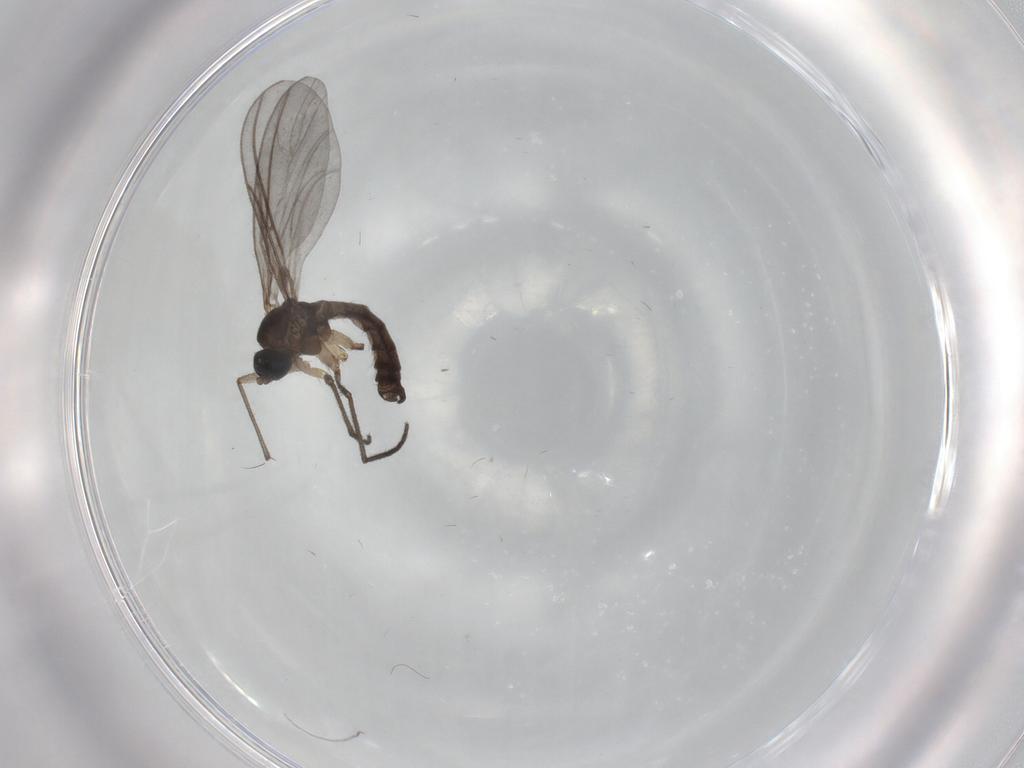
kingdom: Animalia
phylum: Arthropoda
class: Insecta
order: Diptera
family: Sciaridae
